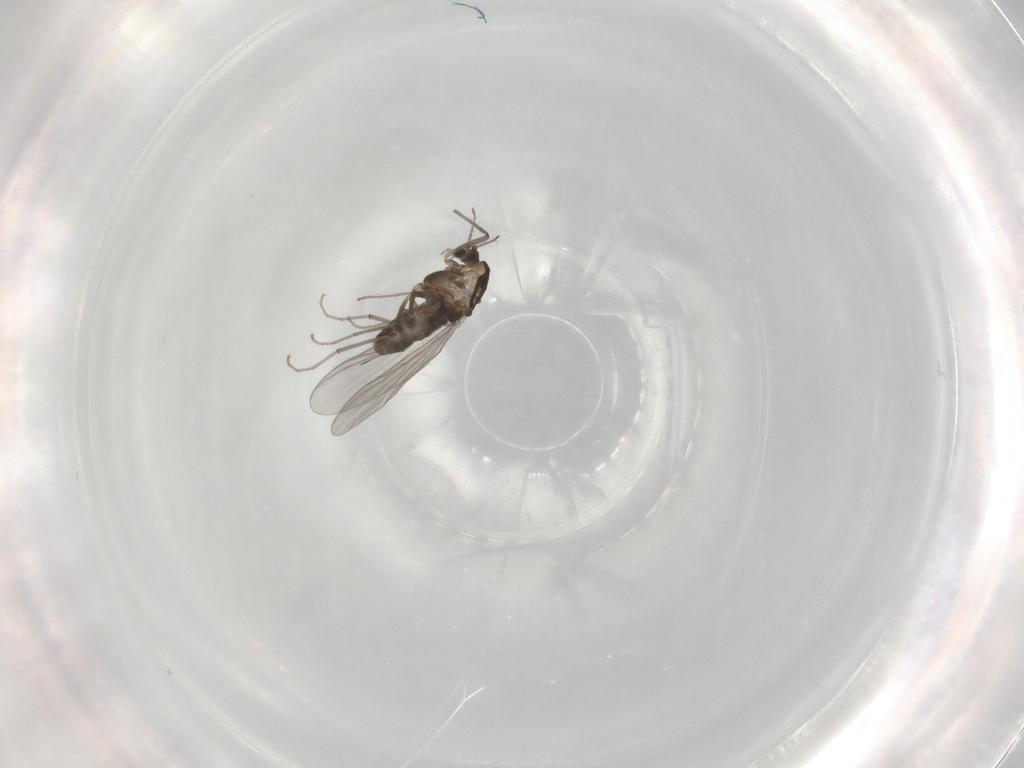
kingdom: Animalia
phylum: Arthropoda
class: Insecta
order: Diptera
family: Chironomidae
